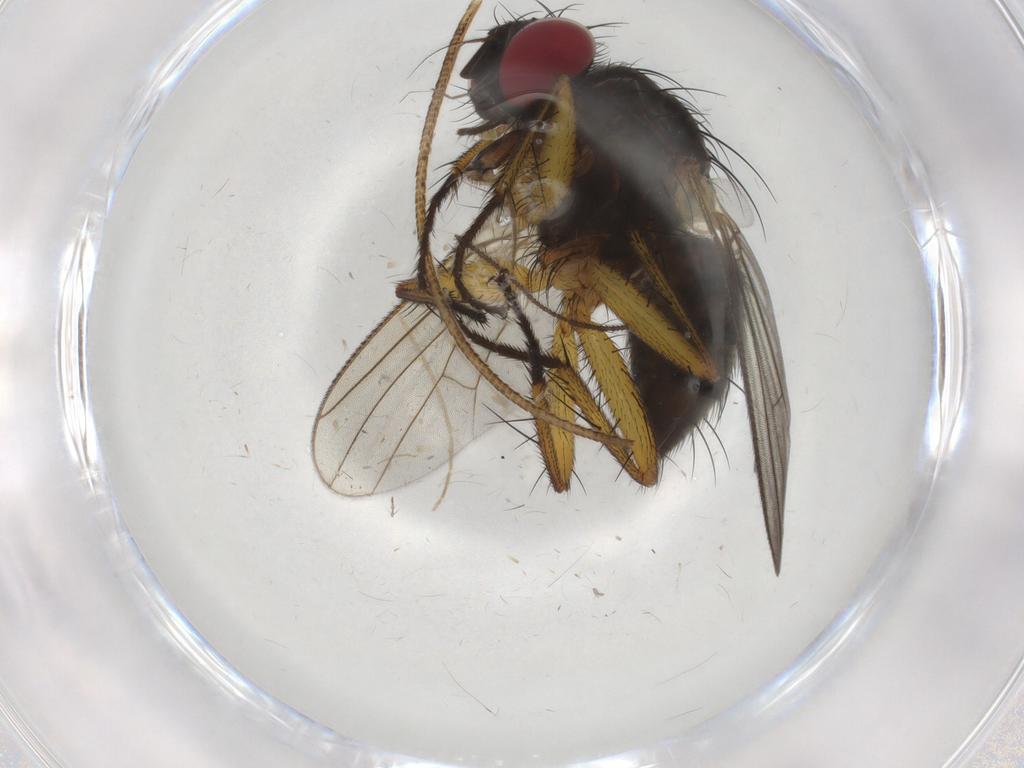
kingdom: Animalia
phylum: Arthropoda
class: Insecta
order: Diptera
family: Muscidae
